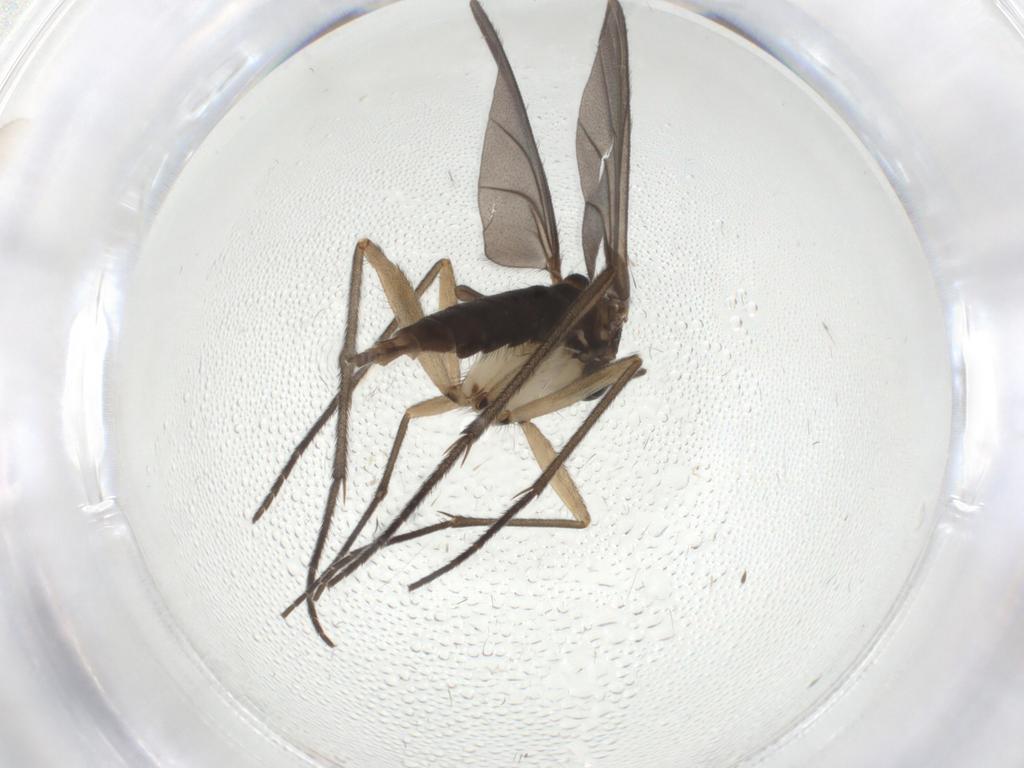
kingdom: Animalia
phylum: Arthropoda
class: Insecta
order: Diptera
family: Sciaridae
